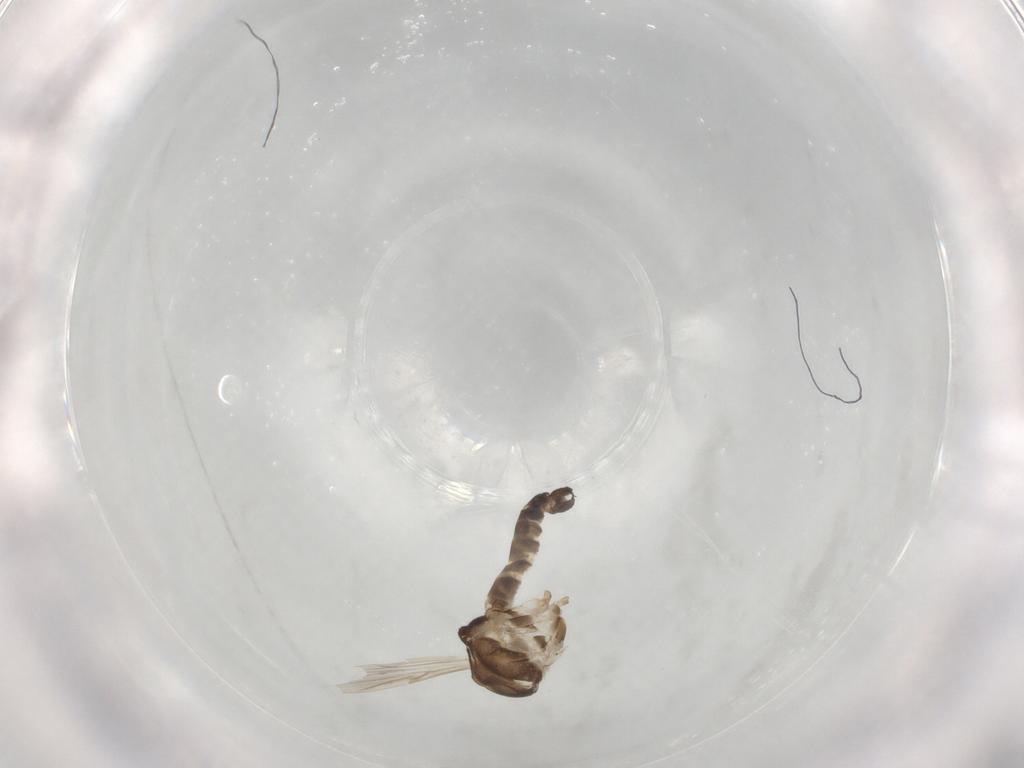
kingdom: Animalia
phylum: Arthropoda
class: Insecta
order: Diptera
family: Ceratopogonidae
